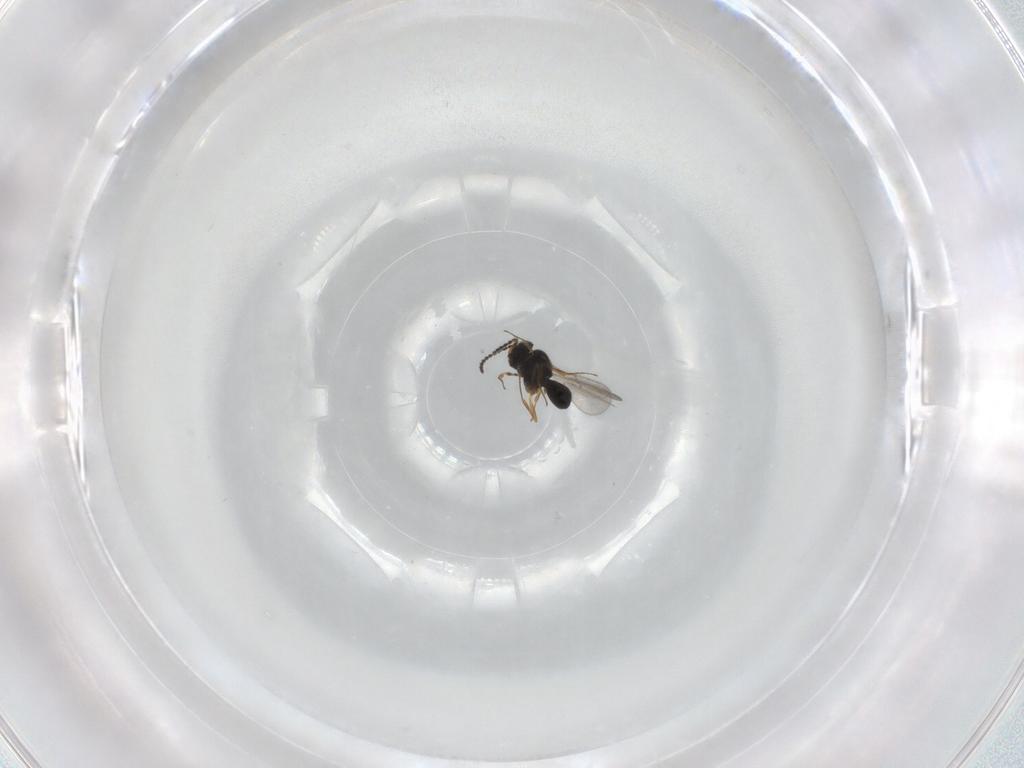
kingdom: Animalia
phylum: Arthropoda
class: Insecta
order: Hymenoptera
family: Scelionidae
